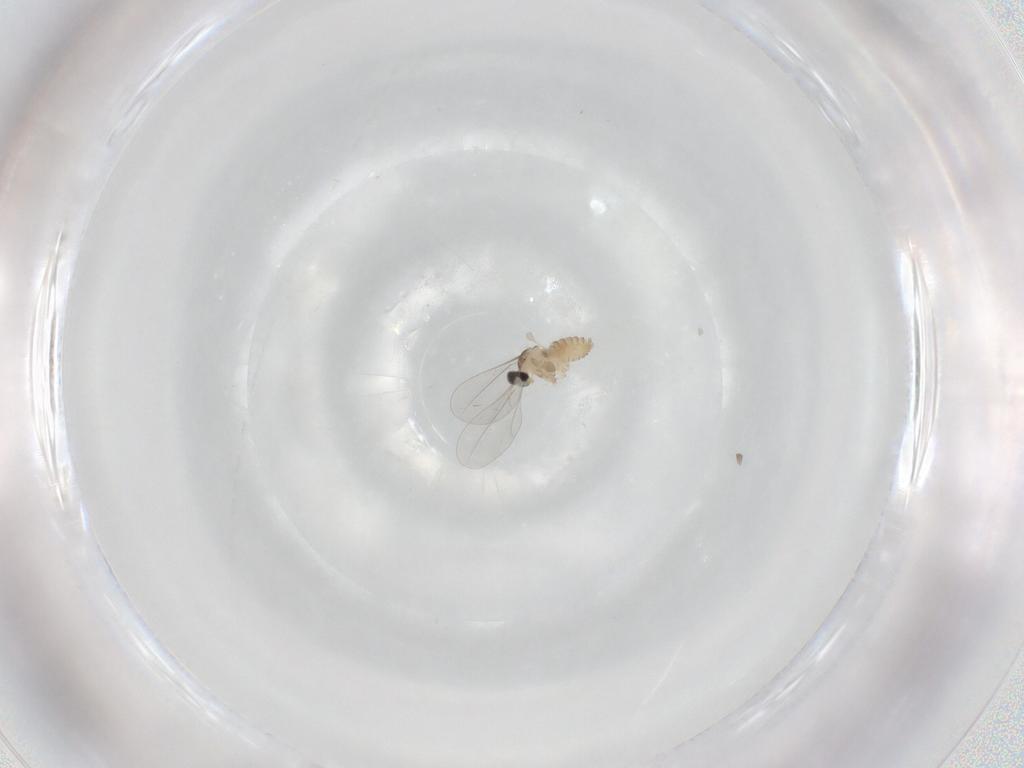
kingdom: Animalia
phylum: Arthropoda
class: Insecta
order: Diptera
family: Cecidomyiidae
